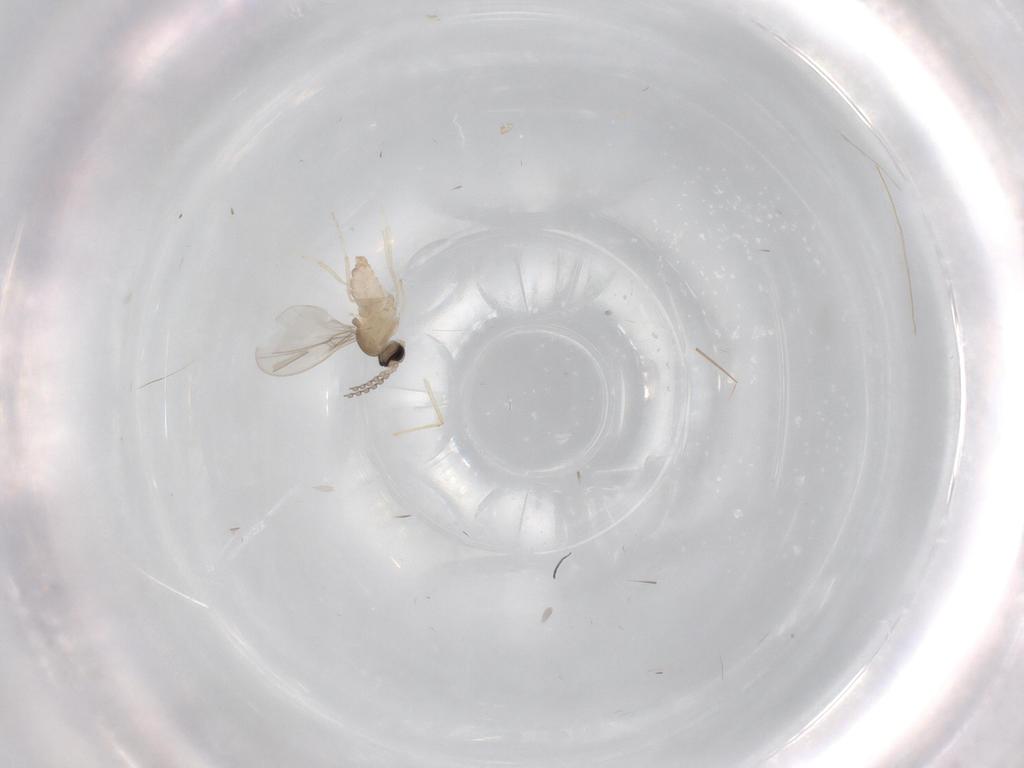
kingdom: Animalia
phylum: Arthropoda
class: Insecta
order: Diptera
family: Cecidomyiidae
